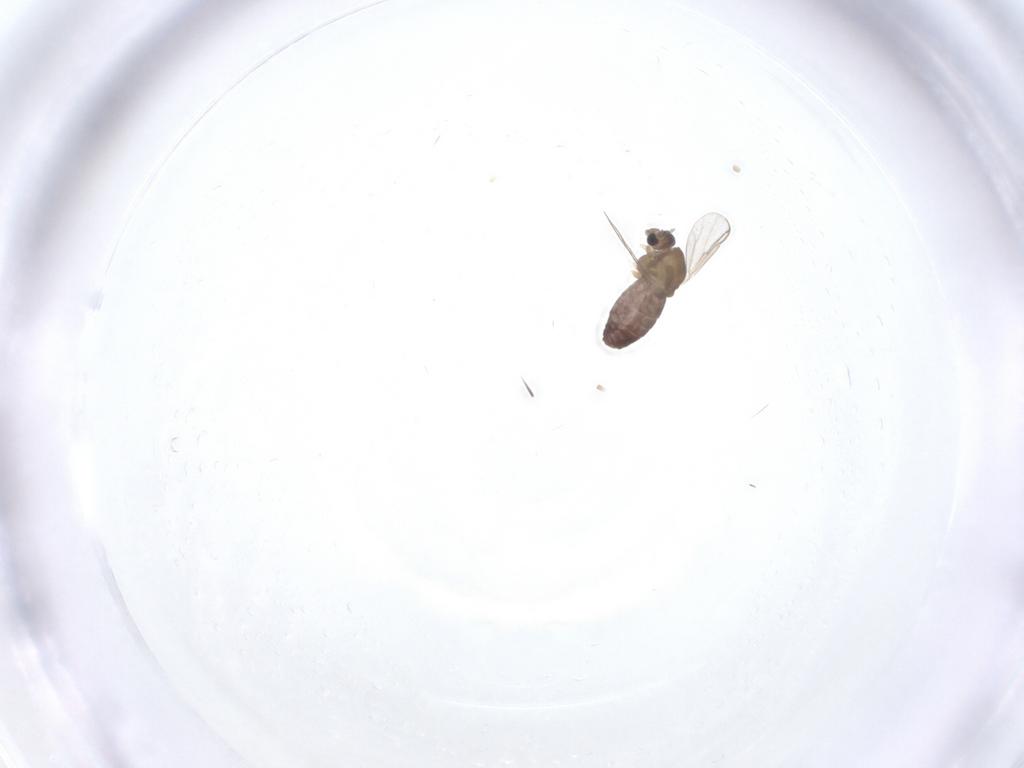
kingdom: Animalia
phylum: Arthropoda
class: Insecta
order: Diptera
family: Chironomidae
